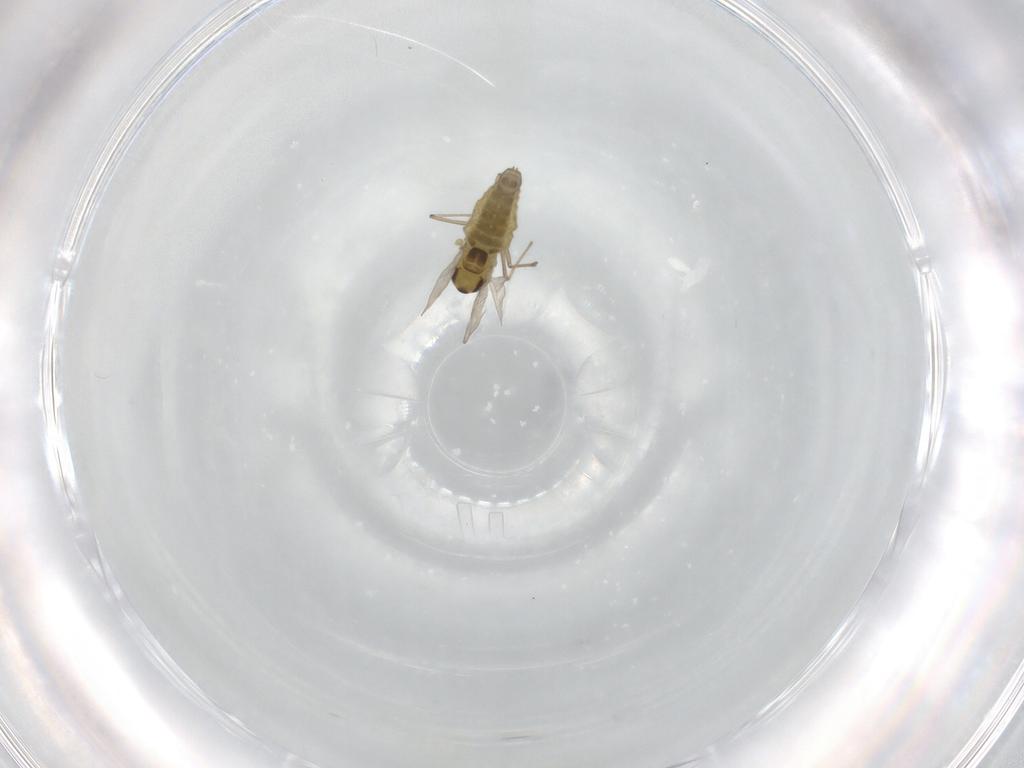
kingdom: Animalia
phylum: Arthropoda
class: Insecta
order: Diptera
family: Chironomidae
